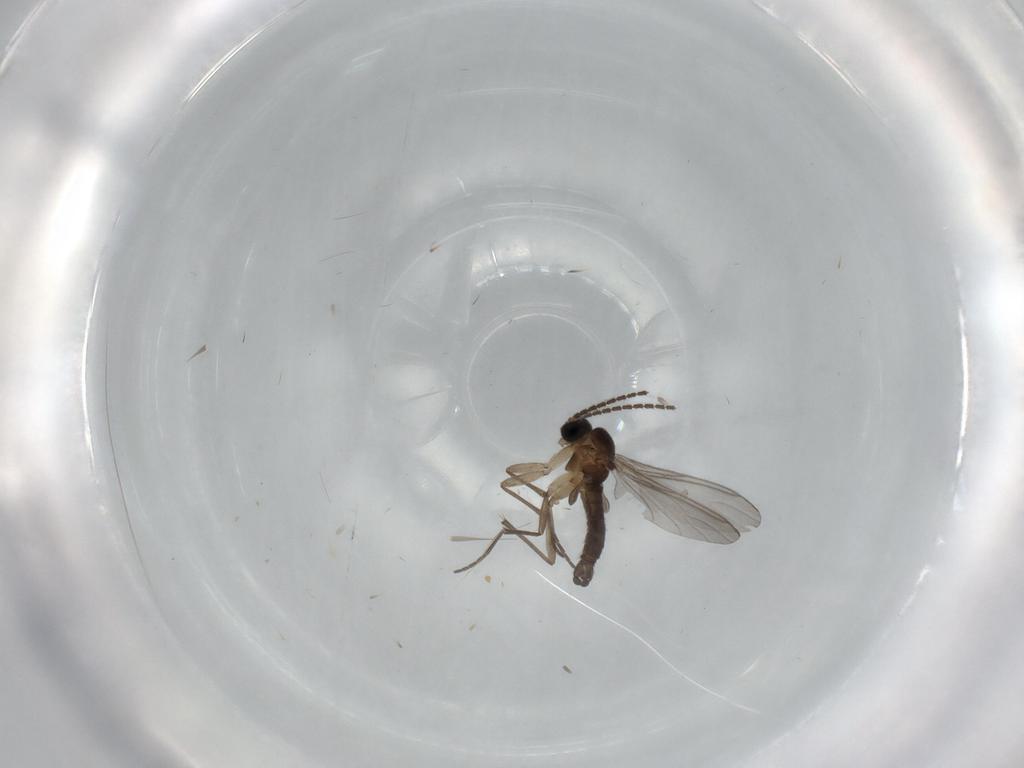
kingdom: Animalia
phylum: Arthropoda
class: Insecta
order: Diptera
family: Sciaridae
